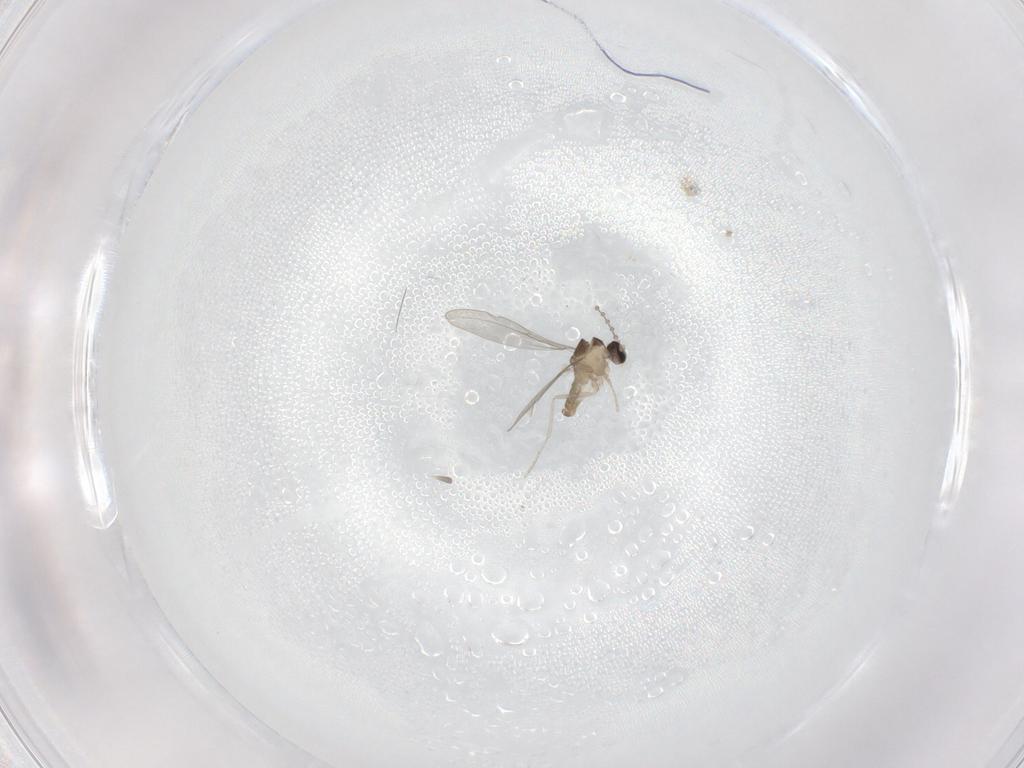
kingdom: Animalia
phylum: Arthropoda
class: Insecta
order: Diptera
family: Cecidomyiidae
